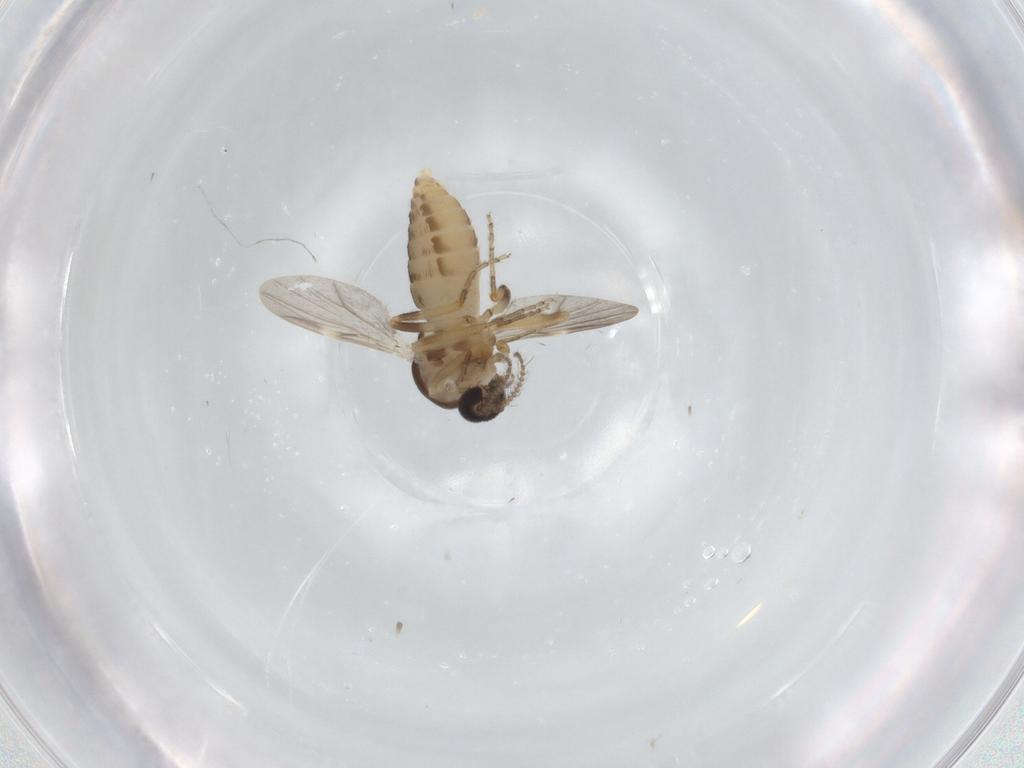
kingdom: Animalia
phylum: Arthropoda
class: Insecta
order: Diptera
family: Ceratopogonidae
